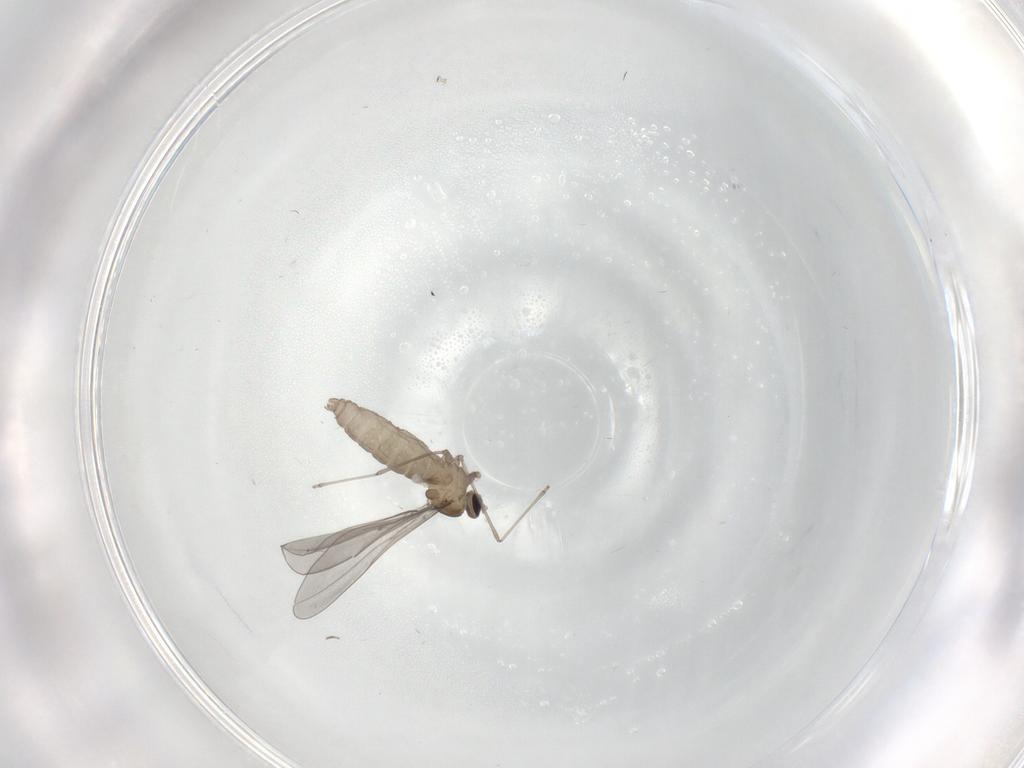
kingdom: Animalia
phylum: Arthropoda
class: Insecta
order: Diptera
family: Cecidomyiidae
